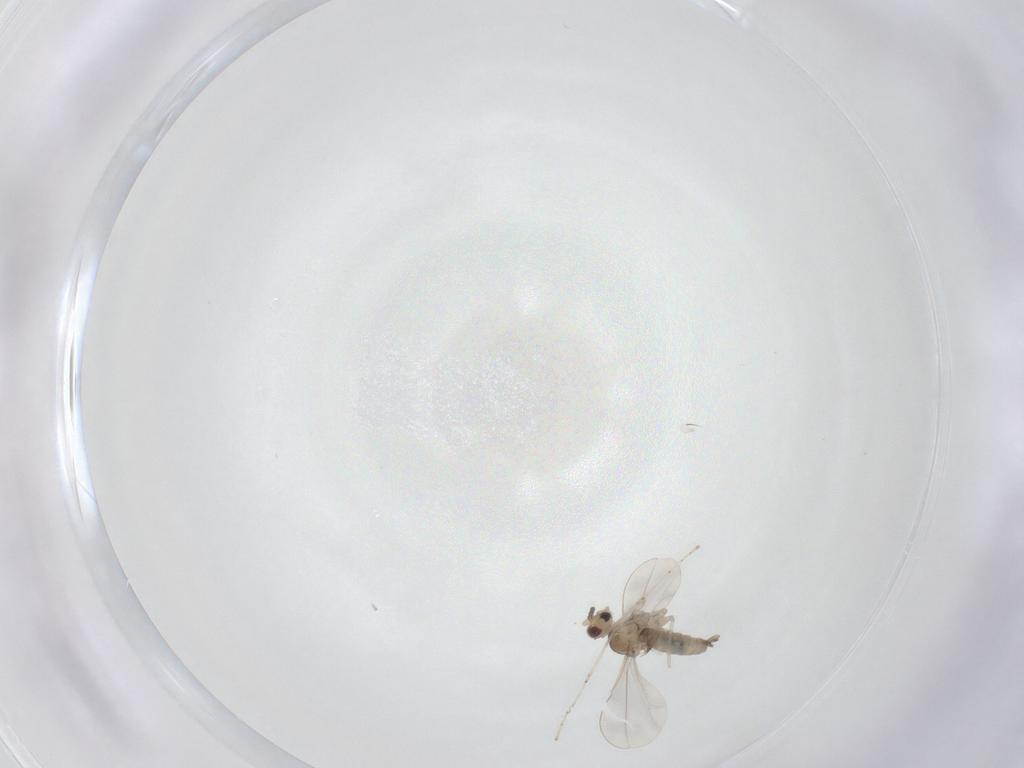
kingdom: Animalia
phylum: Arthropoda
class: Insecta
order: Diptera
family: Cecidomyiidae
